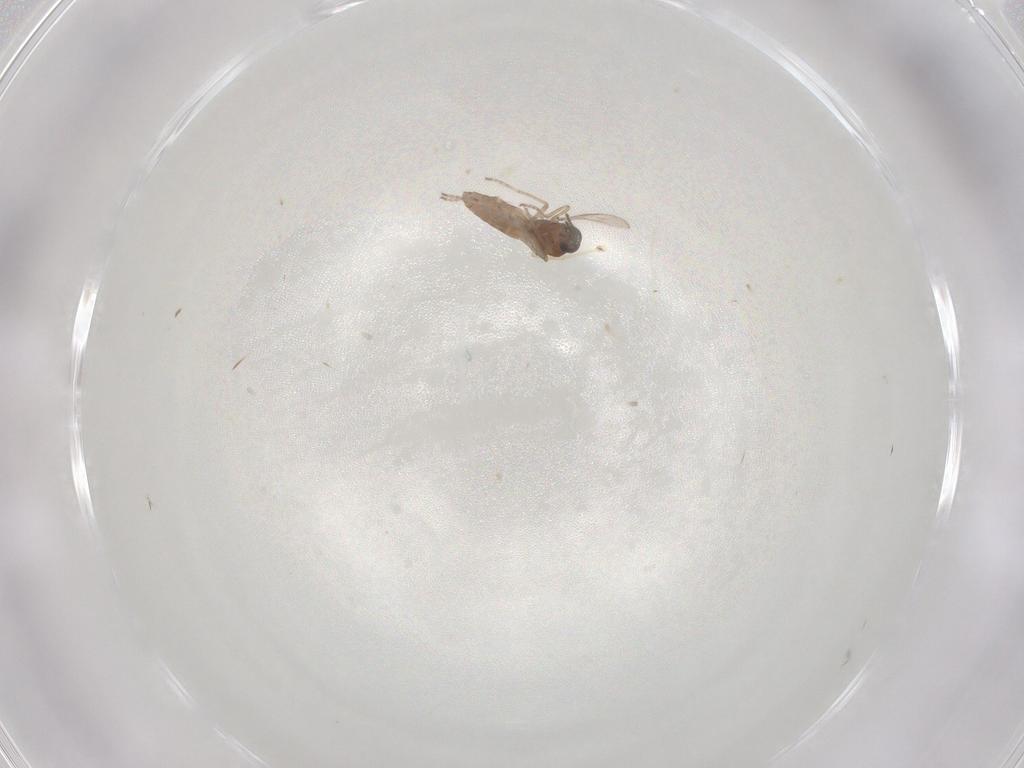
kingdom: Animalia
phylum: Arthropoda
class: Insecta
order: Diptera
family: Ceratopogonidae
